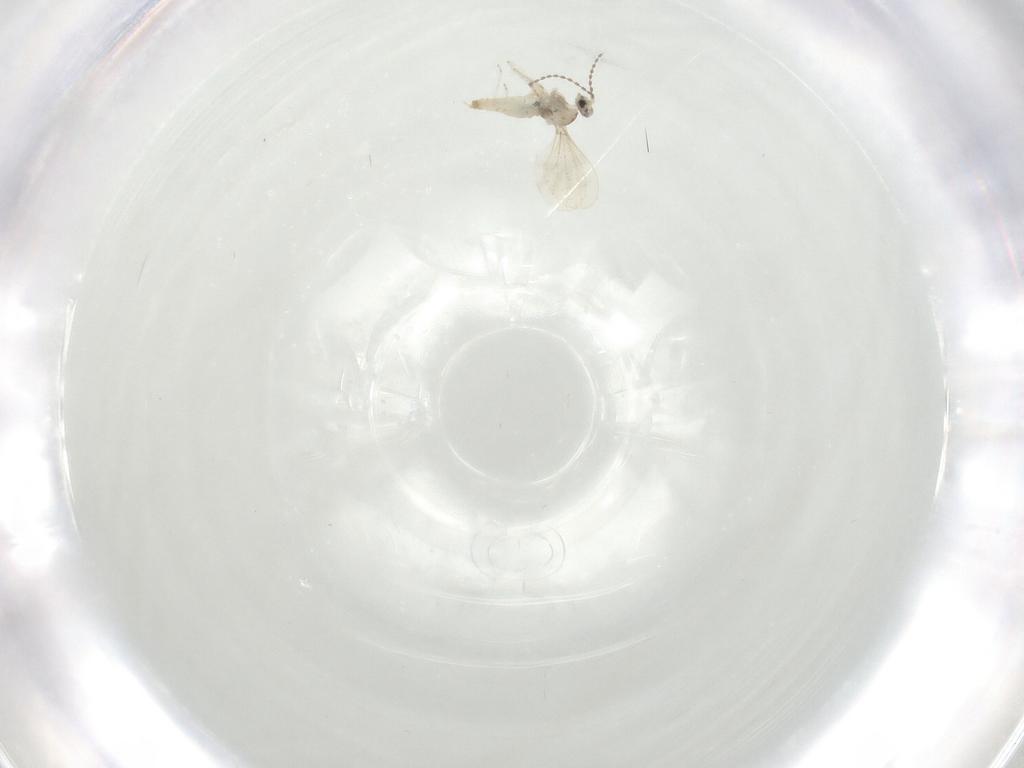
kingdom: Animalia
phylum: Arthropoda
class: Insecta
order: Diptera
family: Cecidomyiidae
